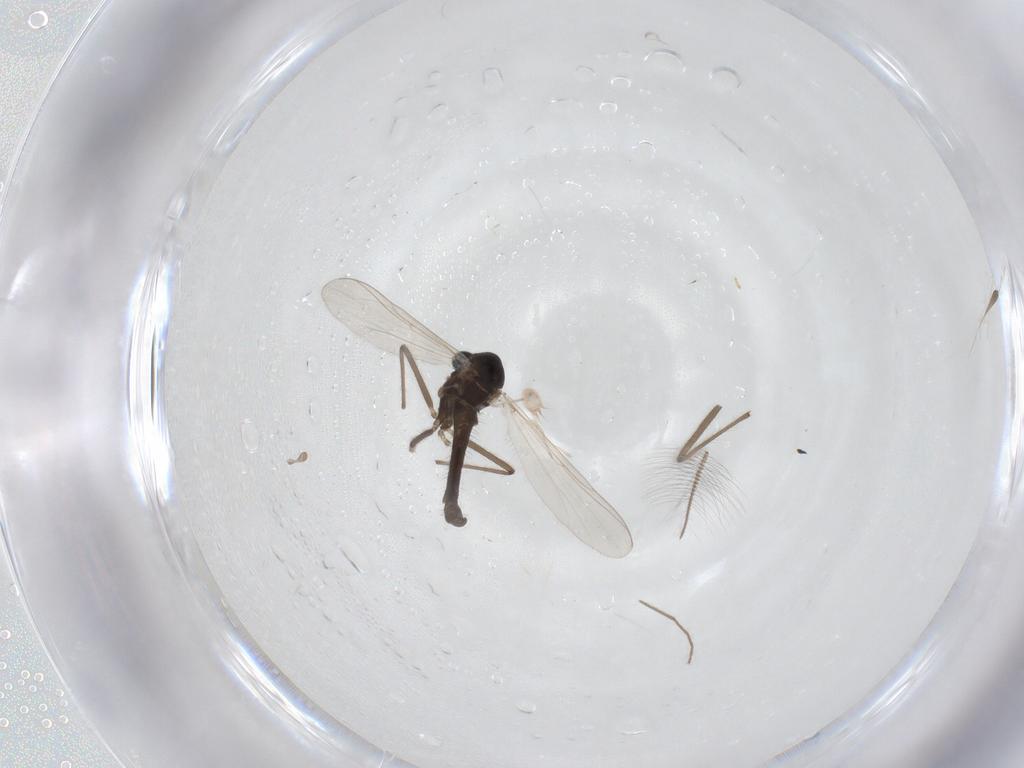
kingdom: Animalia
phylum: Arthropoda
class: Insecta
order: Diptera
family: Chironomidae
